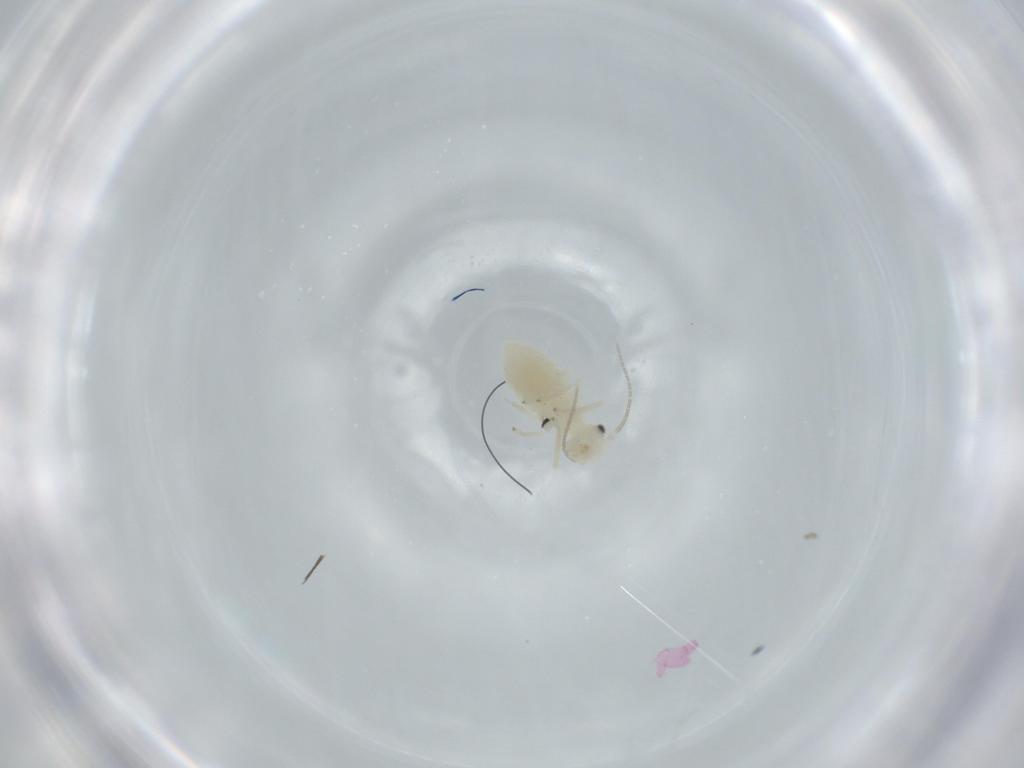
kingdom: Animalia
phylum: Arthropoda
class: Insecta
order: Psocodea
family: Caeciliusidae
